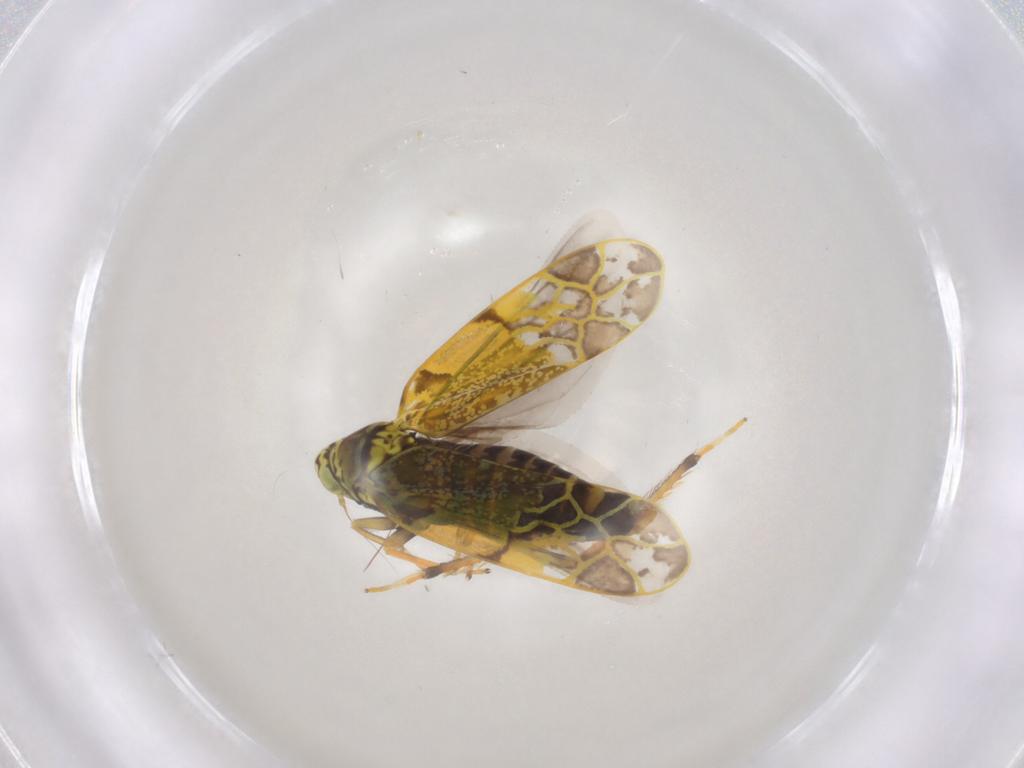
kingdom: Animalia
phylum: Arthropoda
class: Insecta
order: Hemiptera
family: Cicadellidae
